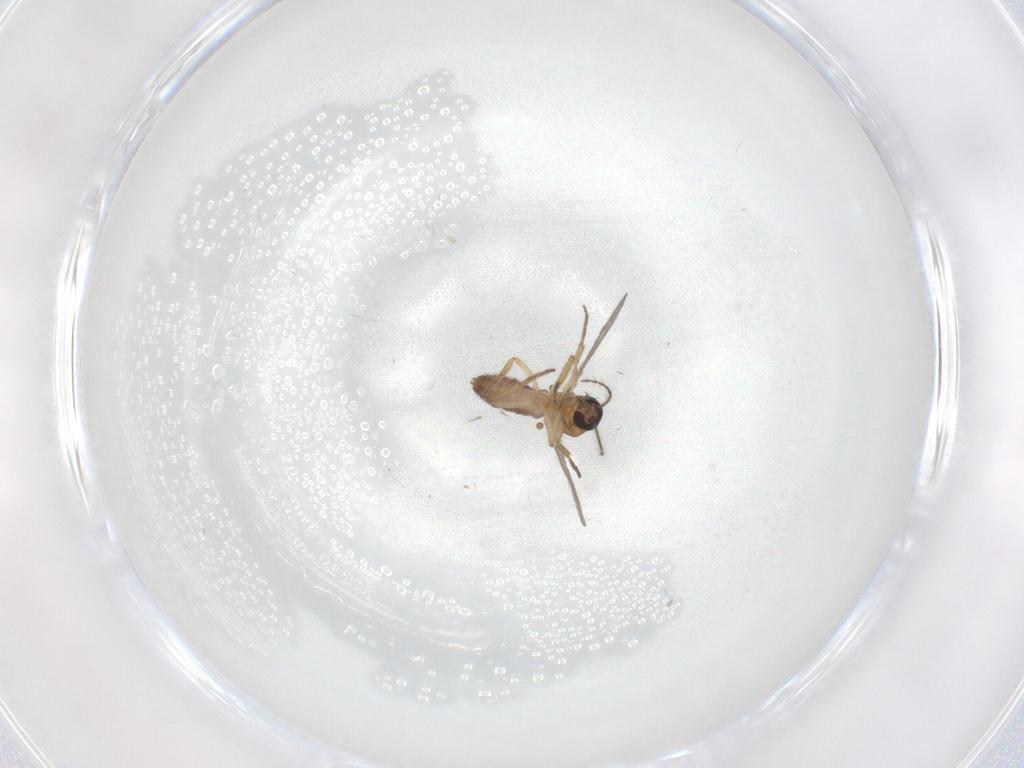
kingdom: Animalia
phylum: Arthropoda
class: Insecta
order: Diptera
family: Ceratopogonidae
